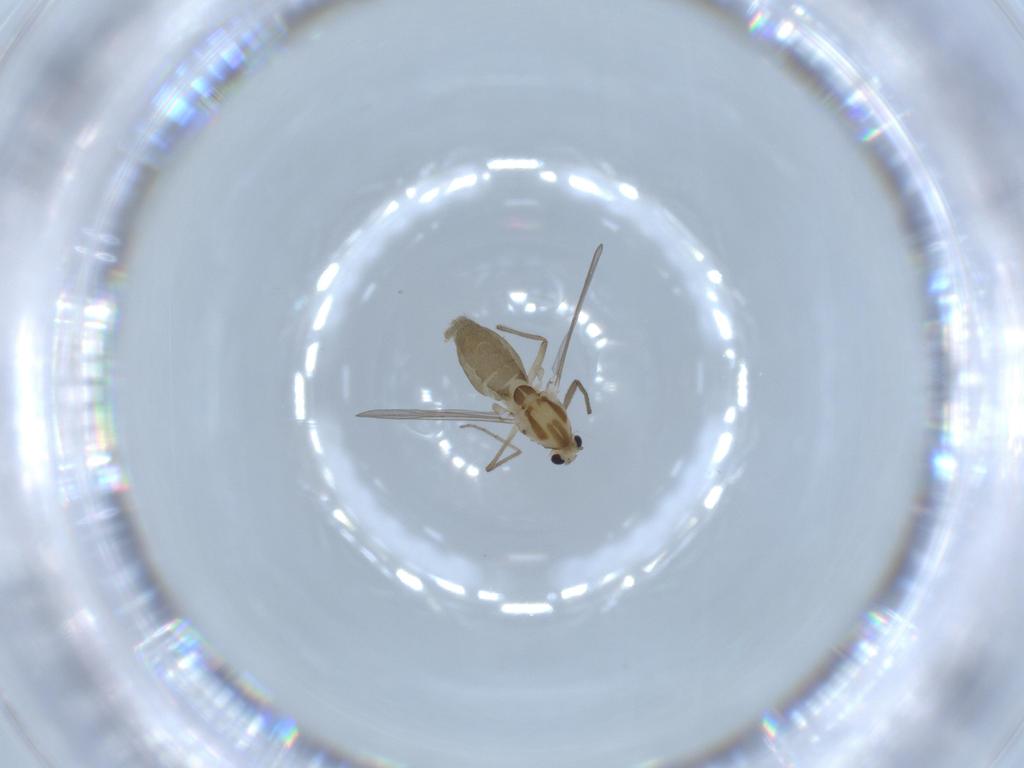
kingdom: Animalia
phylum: Arthropoda
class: Insecta
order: Diptera
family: Chironomidae
